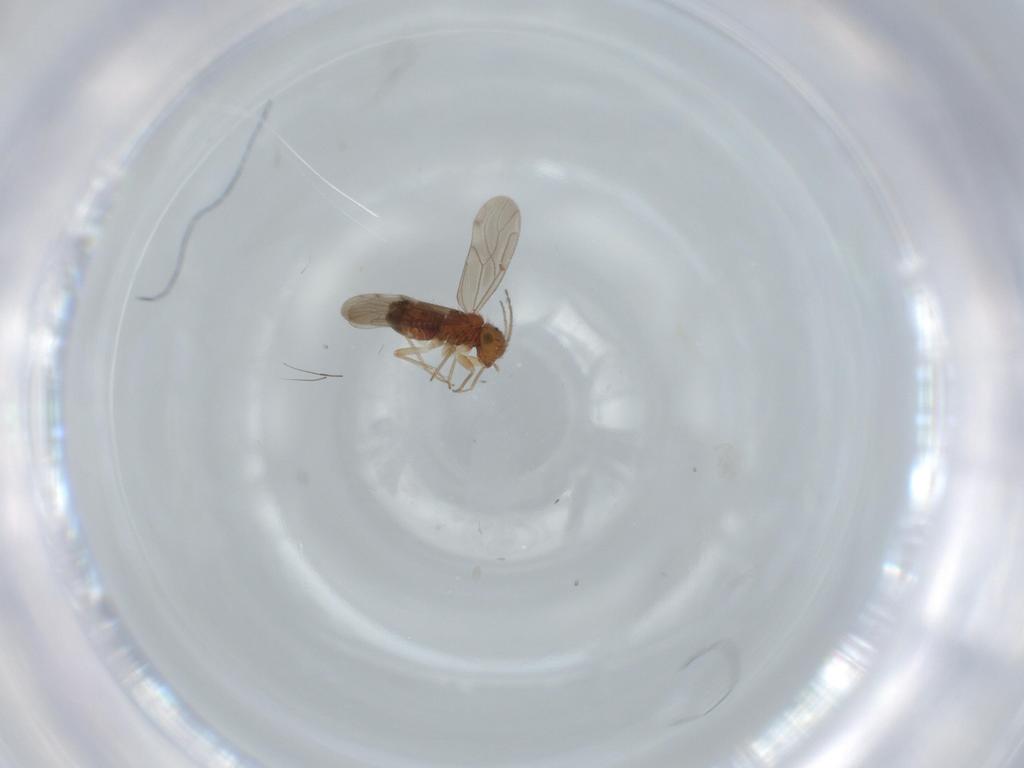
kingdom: Animalia
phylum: Arthropoda
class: Insecta
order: Psocodea
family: Ectopsocidae
